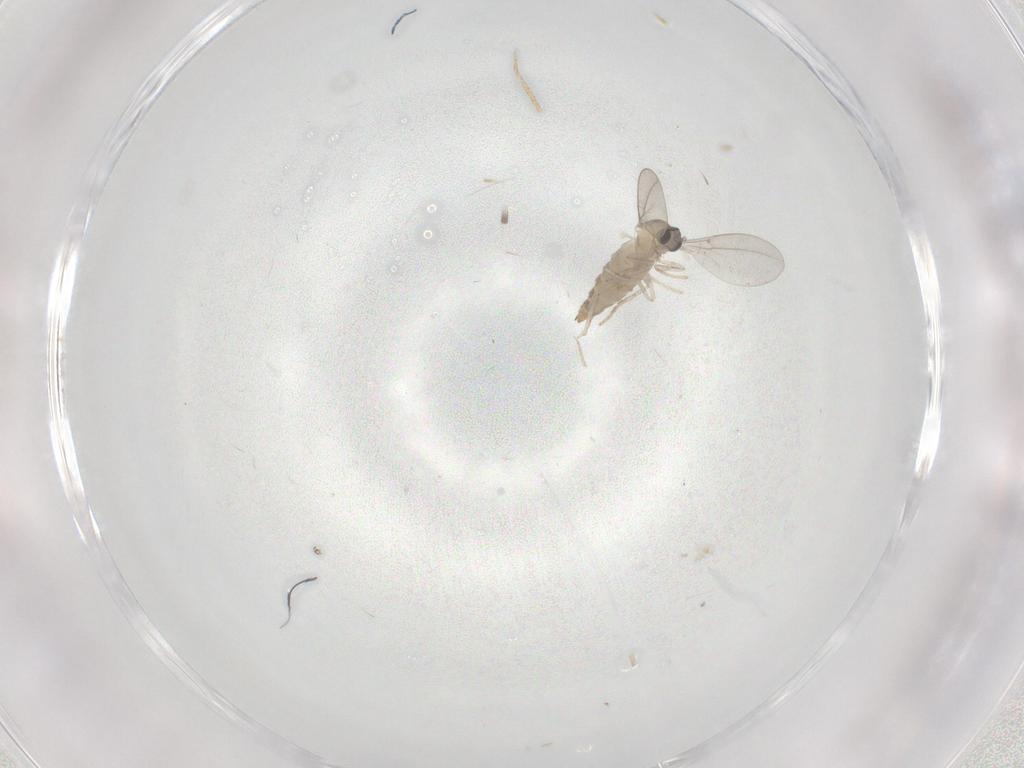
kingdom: Animalia
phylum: Arthropoda
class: Insecta
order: Diptera
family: Cecidomyiidae
